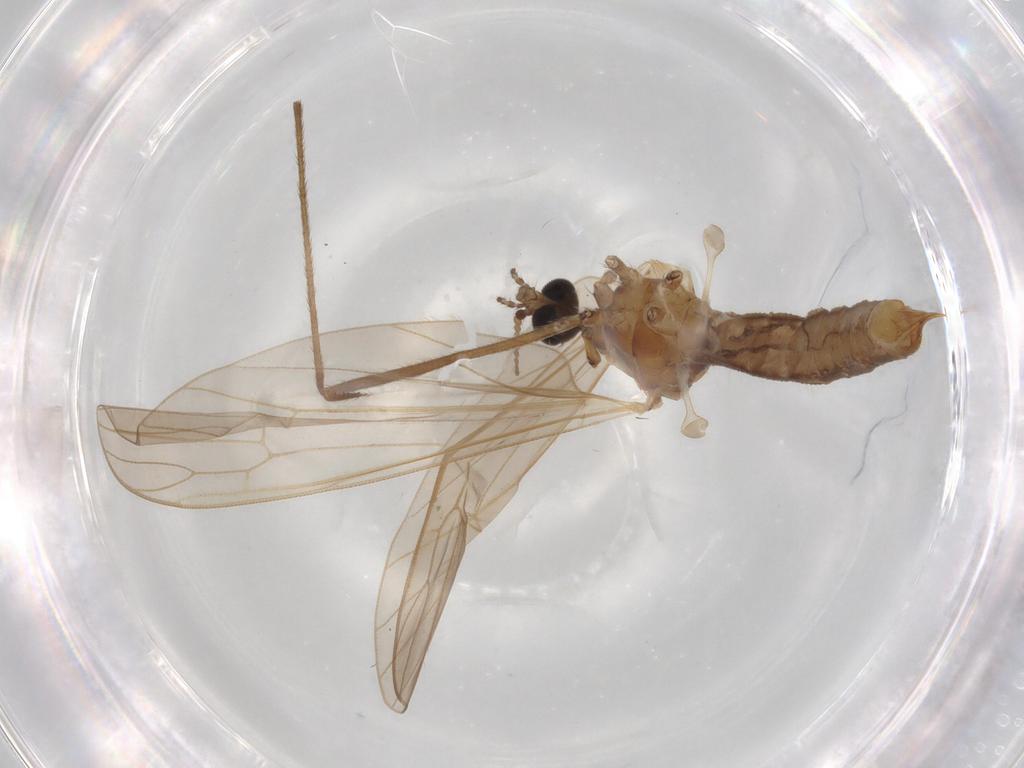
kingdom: Animalia
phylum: Arthropoda
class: Insecta
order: Diptera
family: Chironomidae
